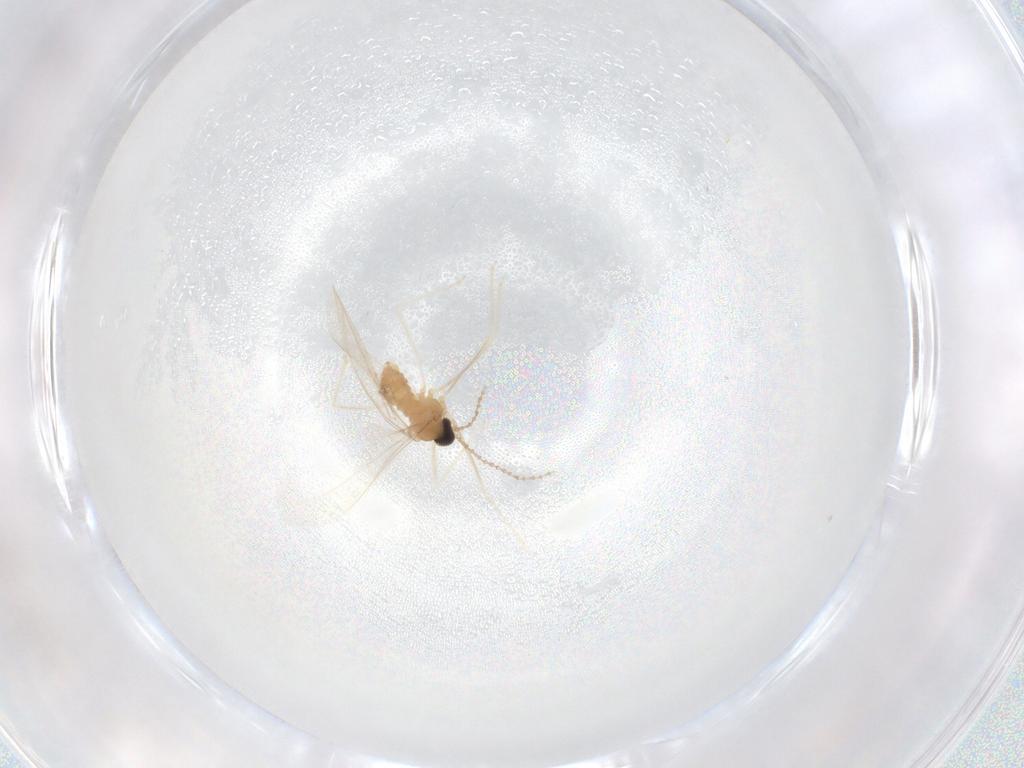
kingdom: Animalia
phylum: Arthropoda
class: Insecta
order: Diptera
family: Cecidomyiidae
